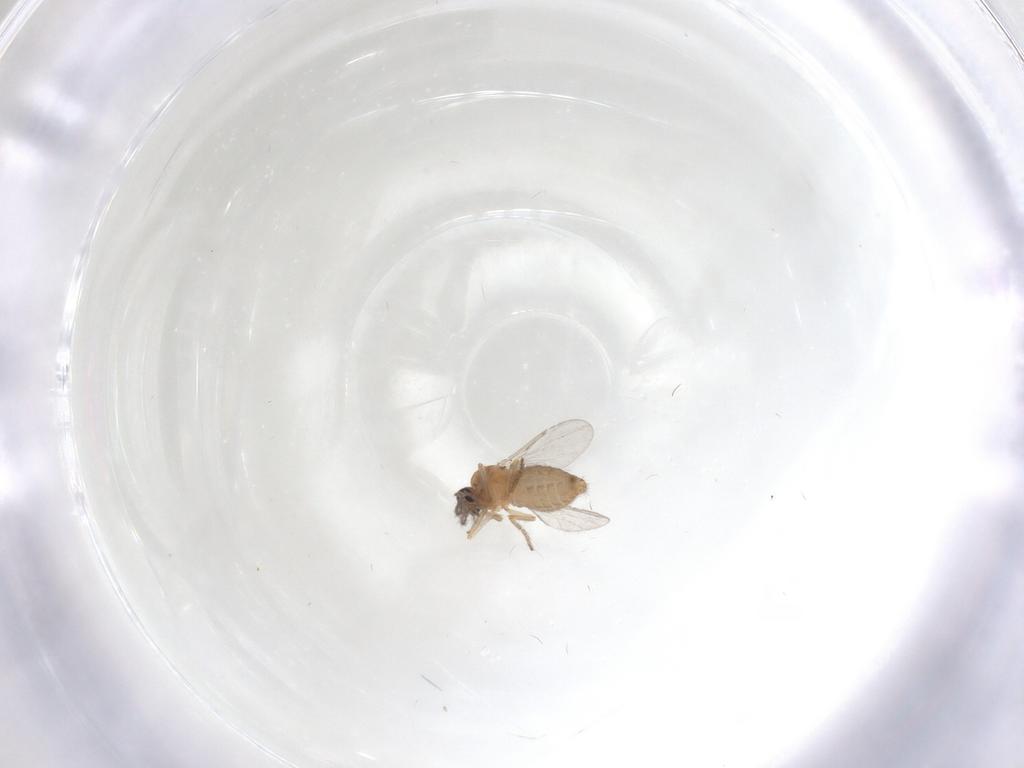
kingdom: Animalia
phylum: Arthropoda
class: Insecta
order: Diptera
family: Ceratopogonidae
